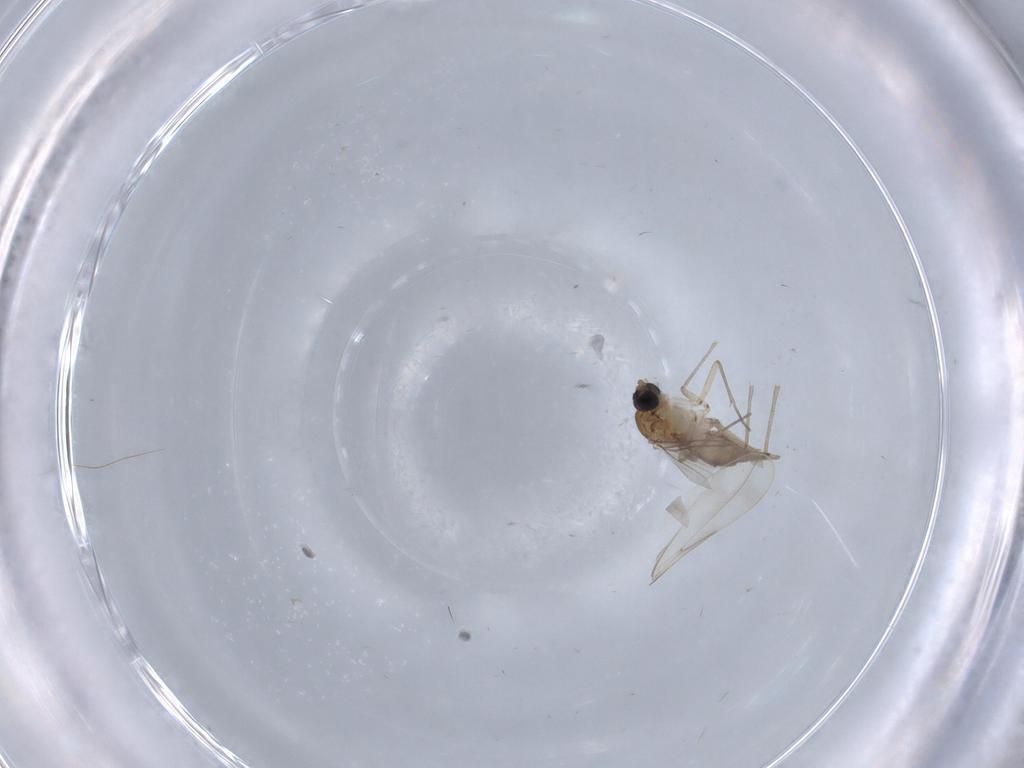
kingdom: Animalia
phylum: Arthropoda
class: Insecta
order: Diptera
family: Sciaridae
